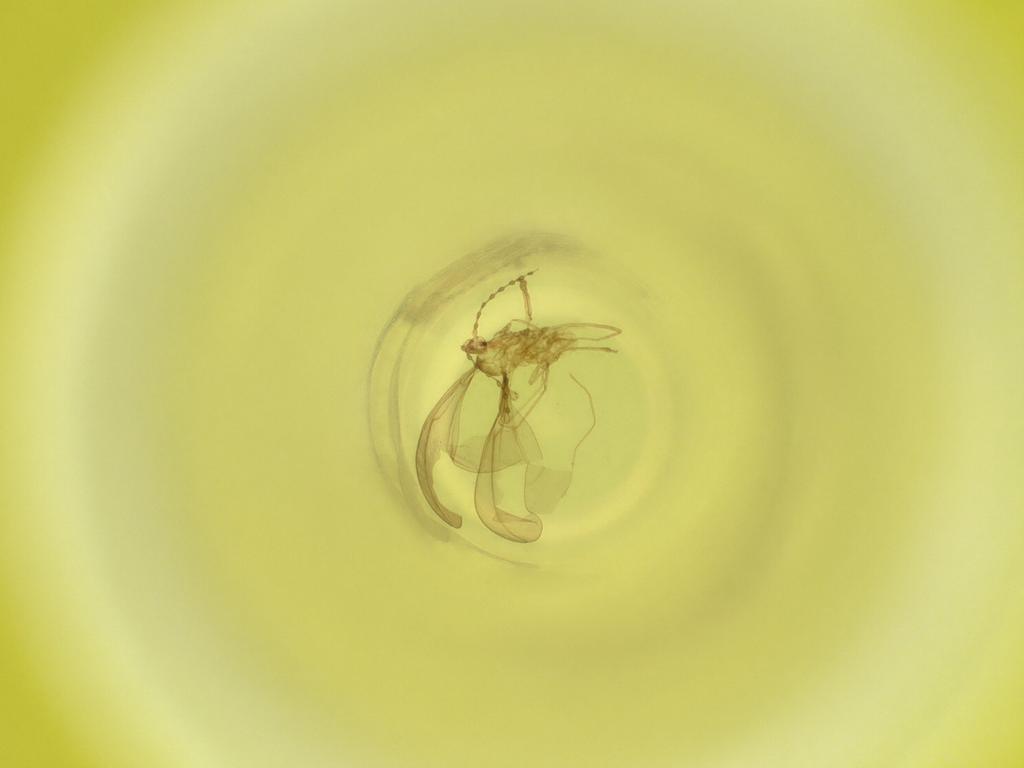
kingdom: Animalia
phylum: Arthropoda
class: Insecta
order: Diptera
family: Cecidomyiidae
